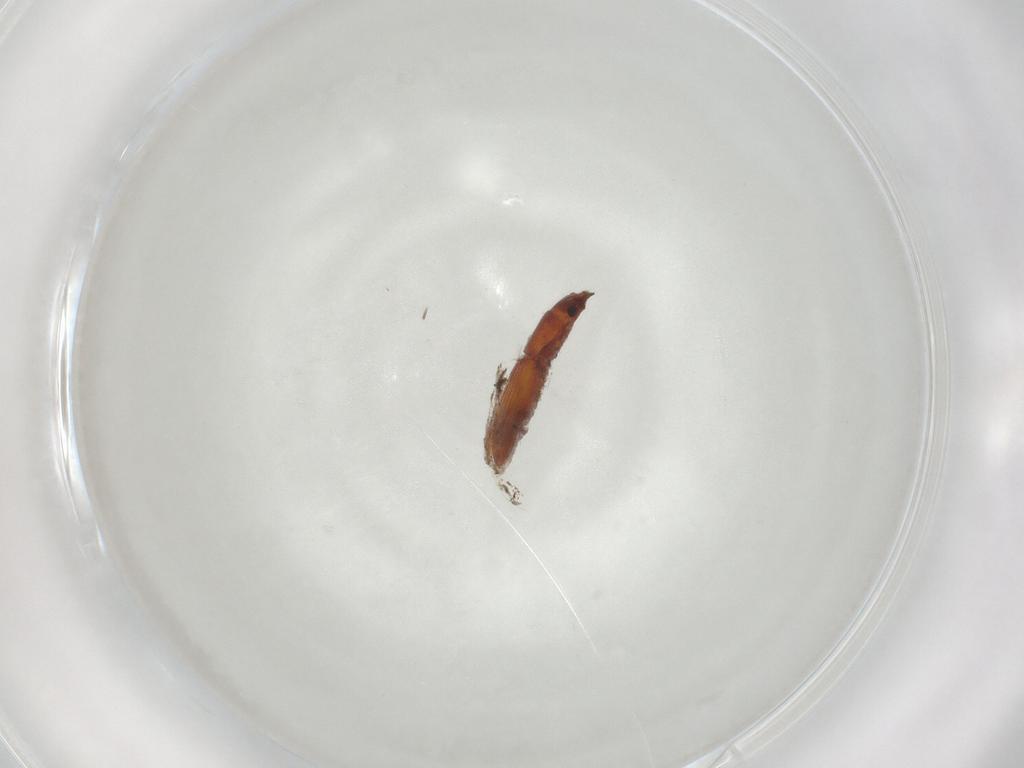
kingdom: Animalia
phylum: Arthropoda
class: Insecta
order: Coleoptera
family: Laemophloeidae
